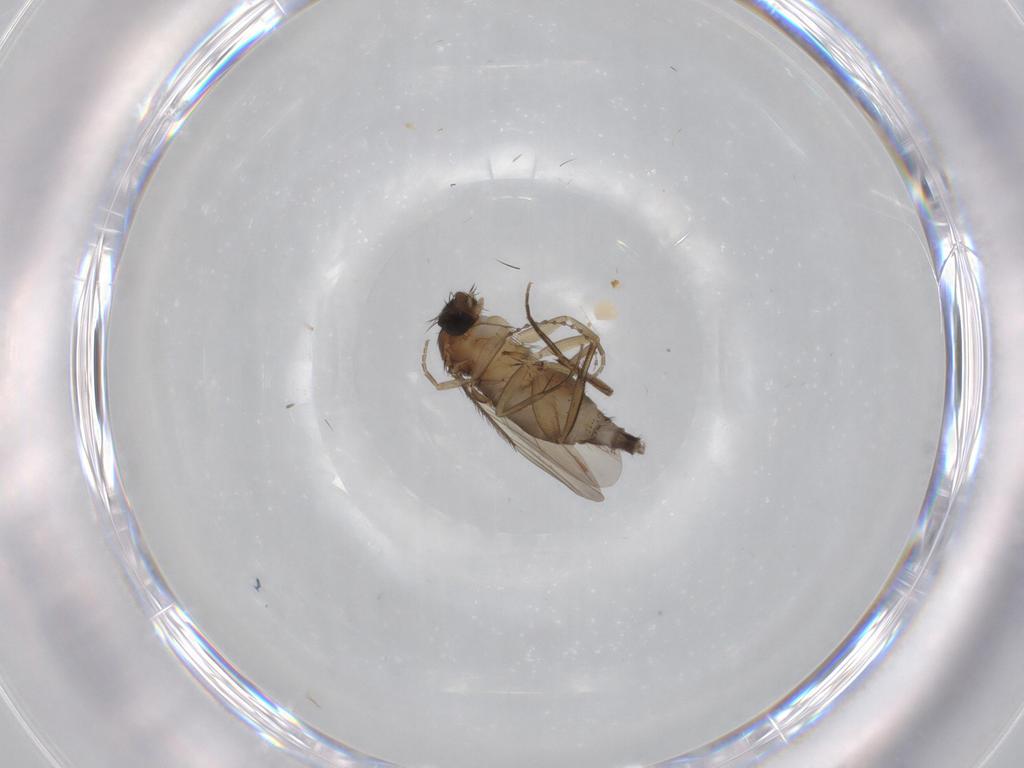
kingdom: Animalia
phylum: Arthropoda
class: Insecta
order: Diptera
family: Phoridae
